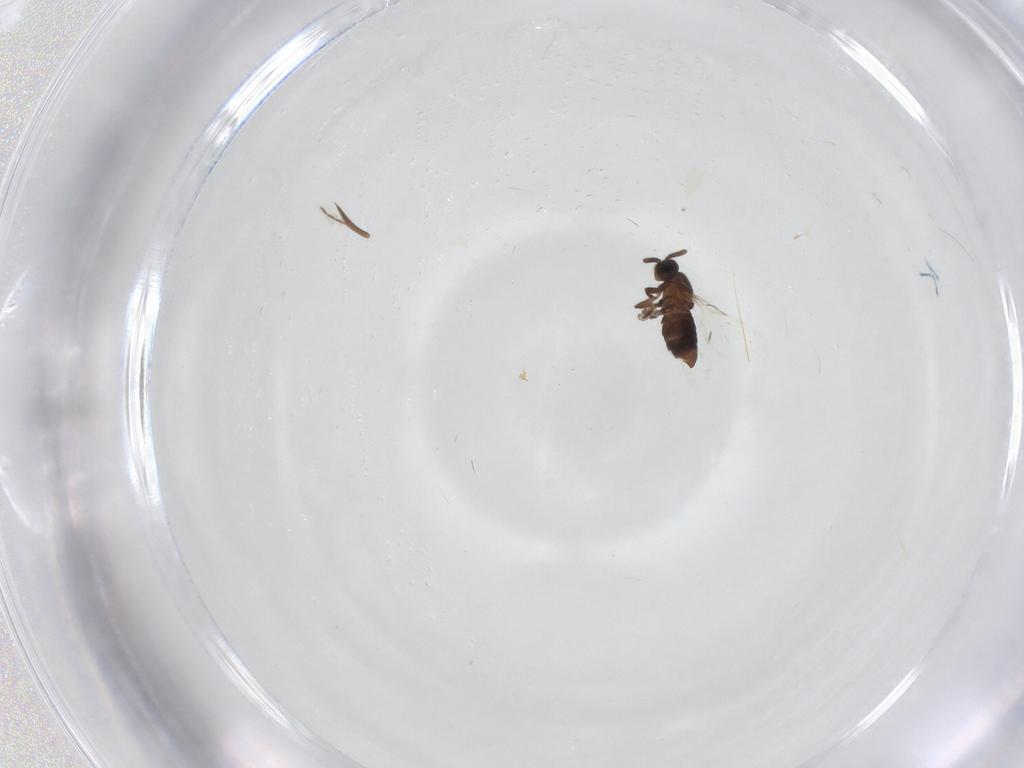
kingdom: Animalia
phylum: Arthropoda
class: Insecta
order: Diptera
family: Scatopsidae
